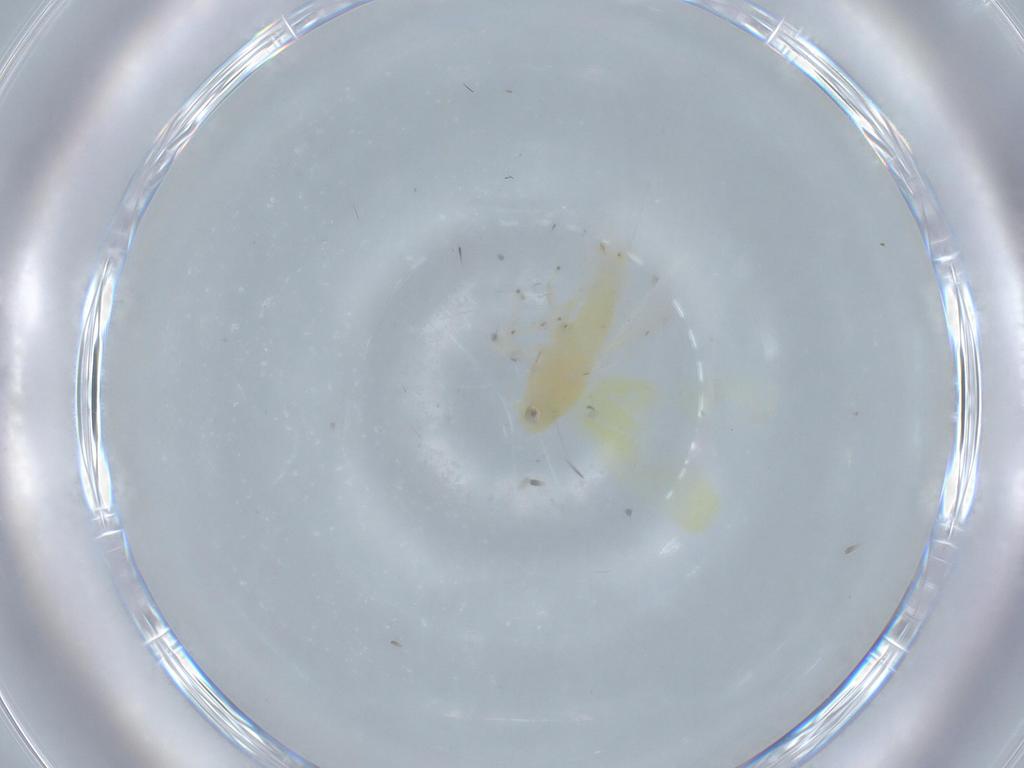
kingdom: Animalia
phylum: Arthropoda
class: Insecta
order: Hemiptera
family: Cicadellidae
